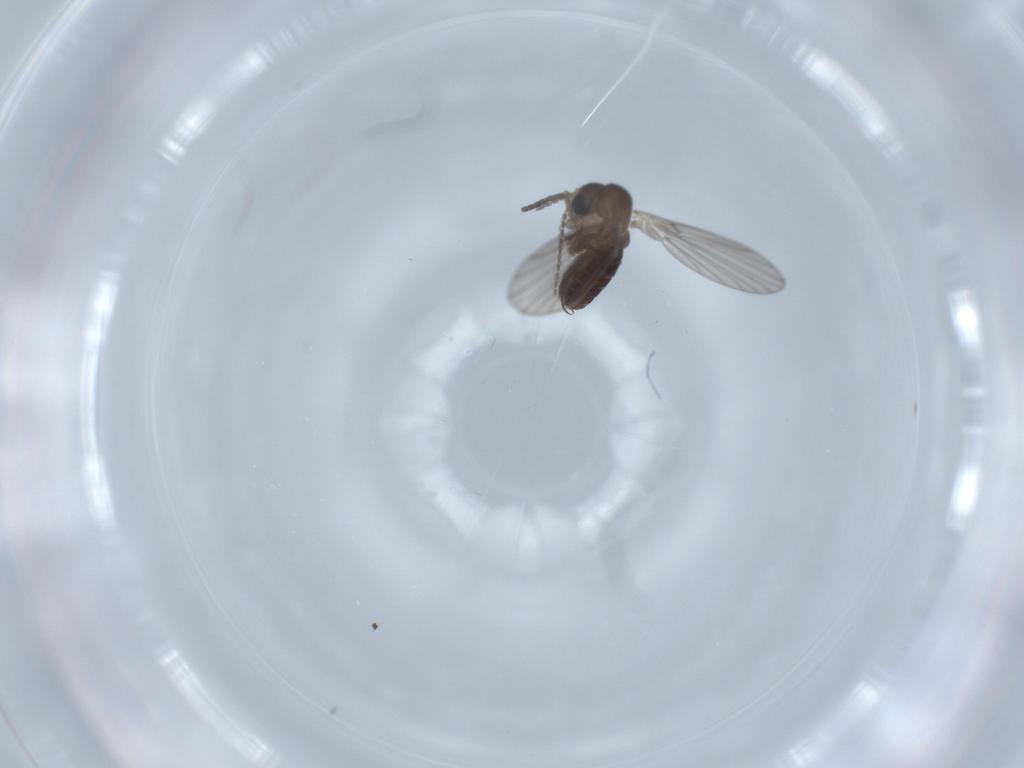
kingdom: Animalia
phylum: Arthropoda
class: Insecta
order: Diptera
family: Psychodidae
